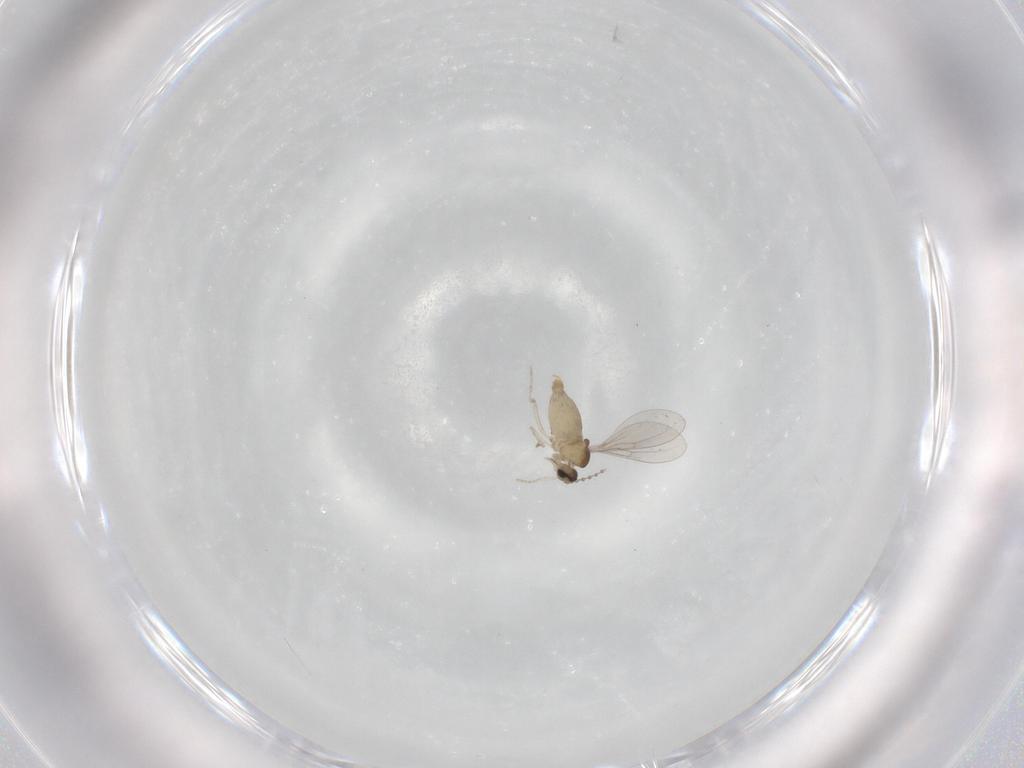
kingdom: Animalia
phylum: Arthropoda
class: Insecta
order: Diptera
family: Cecidomyiidae
